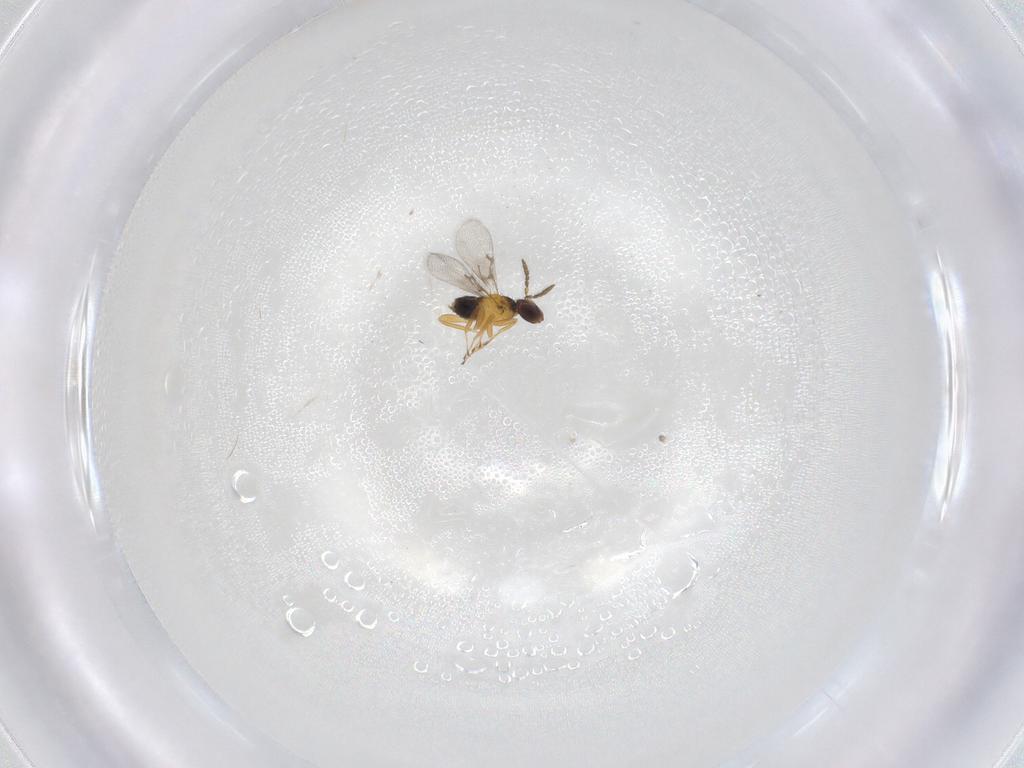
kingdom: Animalia
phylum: Arthropoda
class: Insecta
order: Hymenoptera
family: Trichogrammatidae
